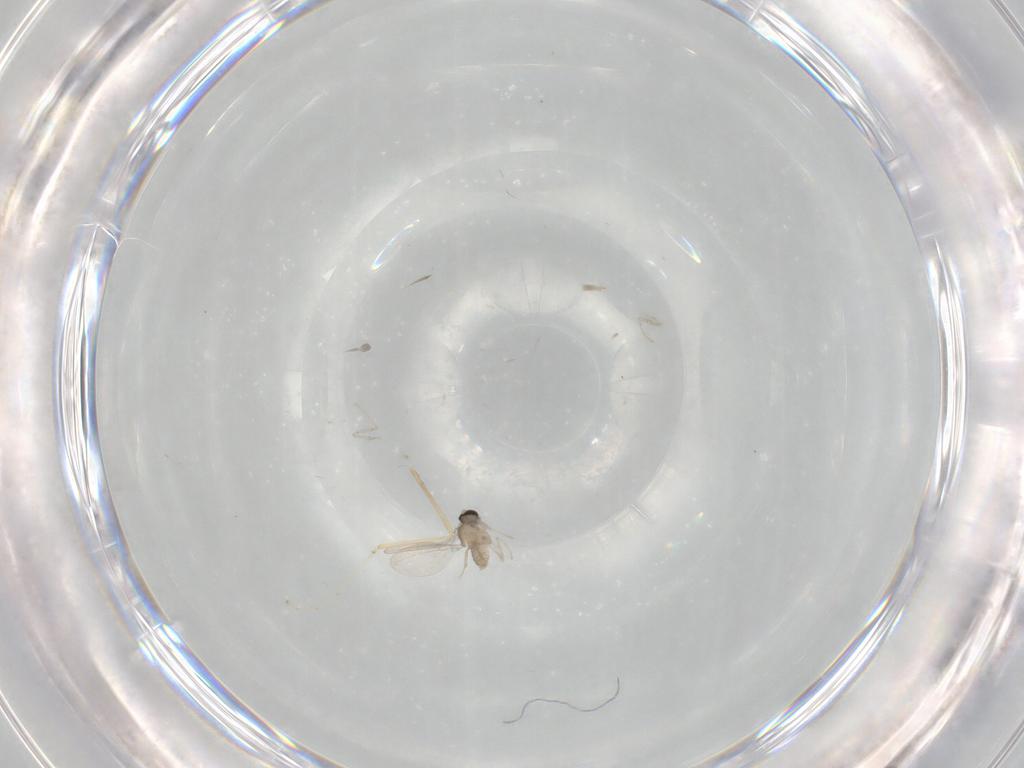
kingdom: Animalia
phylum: Arthropoda
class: Insecta
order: Diptera
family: Cecidomyiidae
